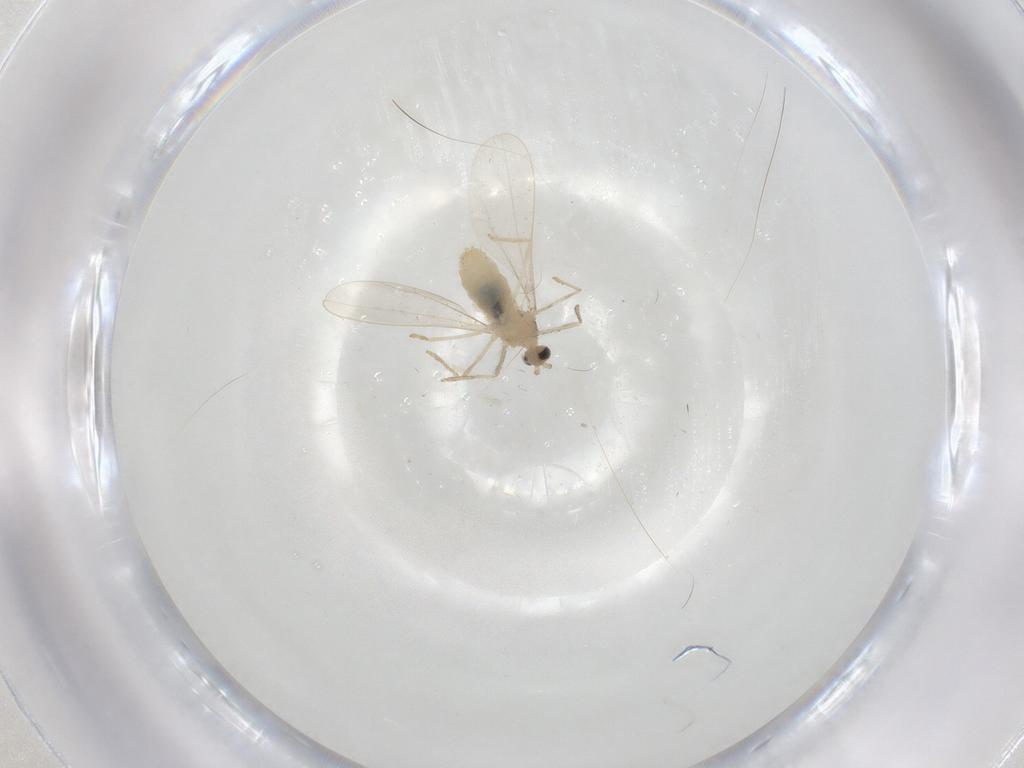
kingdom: Animalia
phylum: Arthropoda
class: Insecta
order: Diptera
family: Cecidomyiidae
